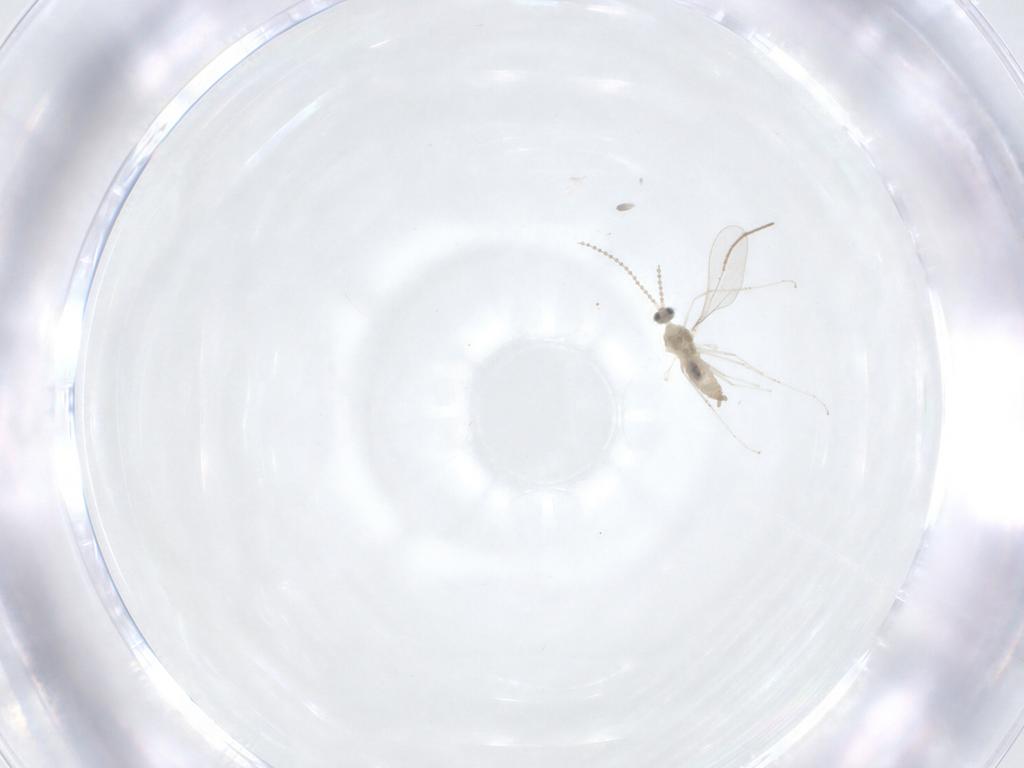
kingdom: Animalia
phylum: Arthropoda
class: Insecta
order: Diptera
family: Cecidomyiidae
